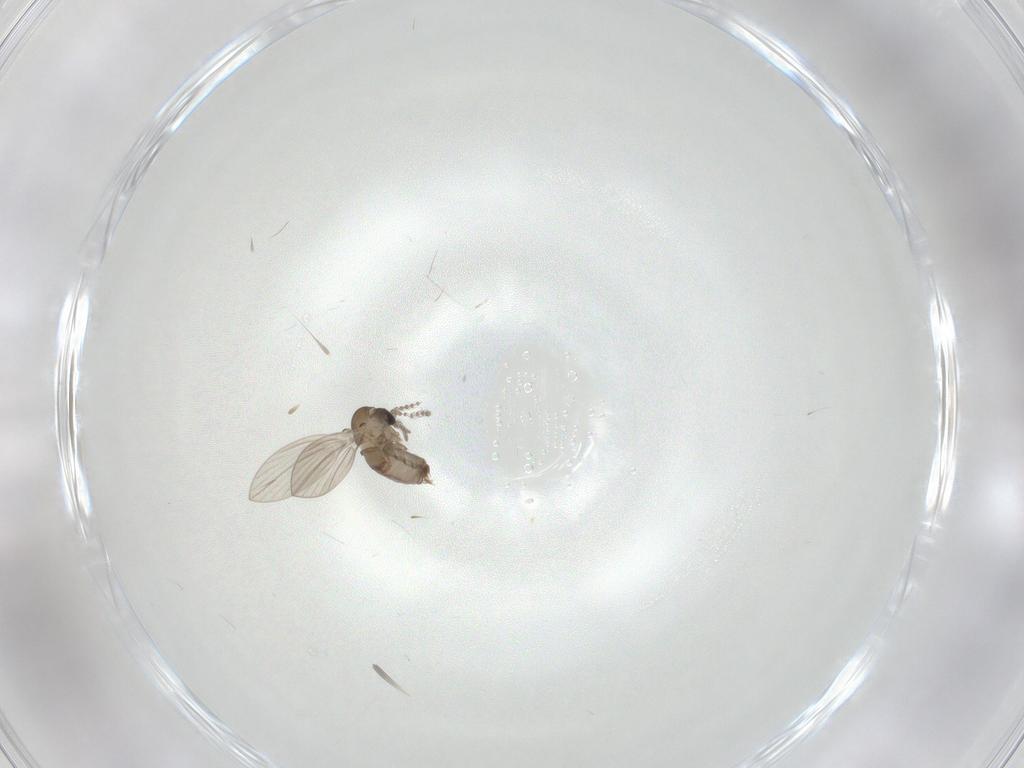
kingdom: Animalia
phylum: Arthropoda
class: Insecta
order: Diptera
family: Psychodidae
